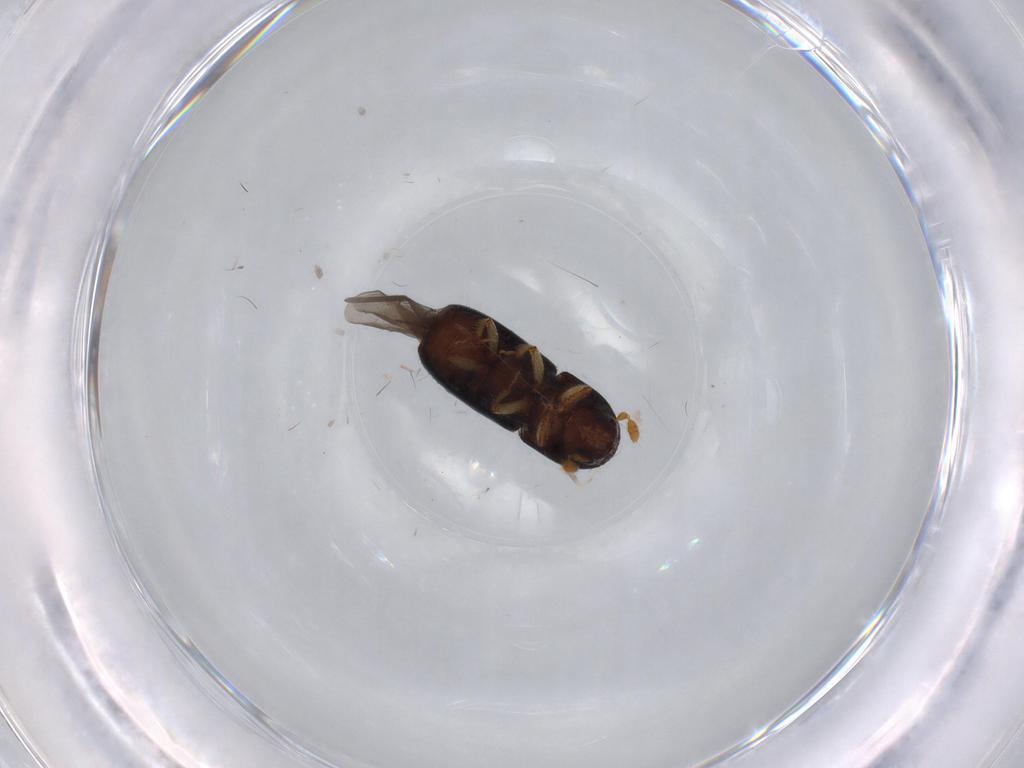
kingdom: Animalia
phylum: Arthropoda
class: Insecta
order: Coleoptera
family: Curculionidae
